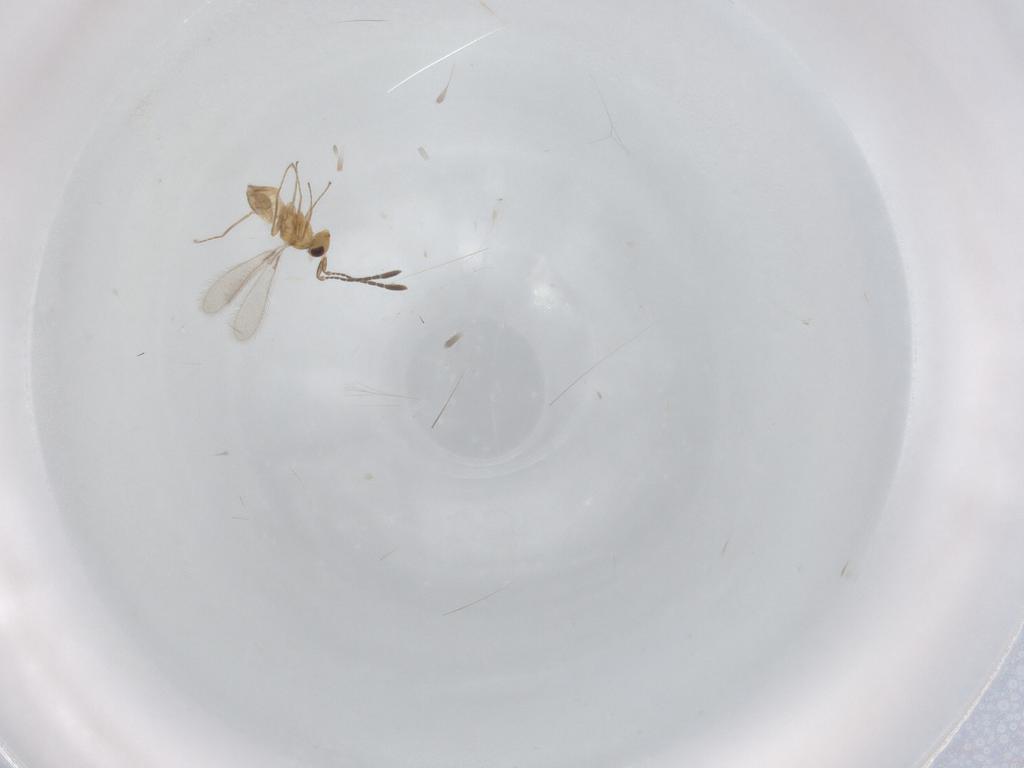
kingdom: Animalia
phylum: Arthropoda
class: Insecta
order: Hymenoptera
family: Mymaridae
